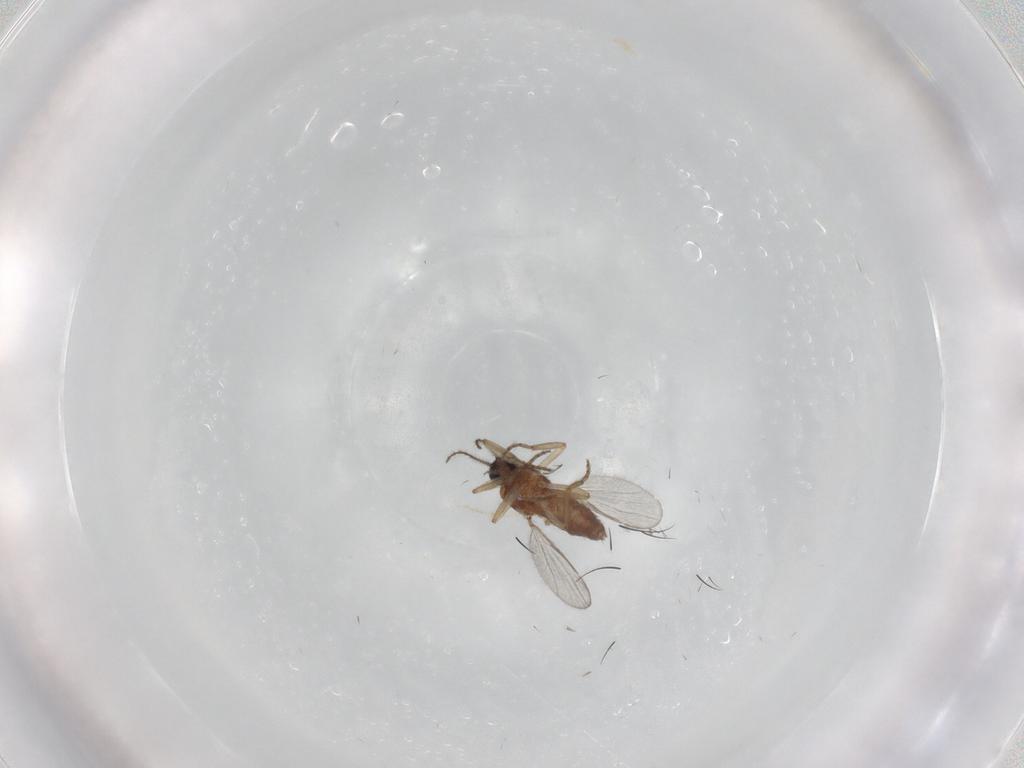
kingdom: Animalia
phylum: Arthropoda
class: Insecta
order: Diptera
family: Ceratopogonidae
